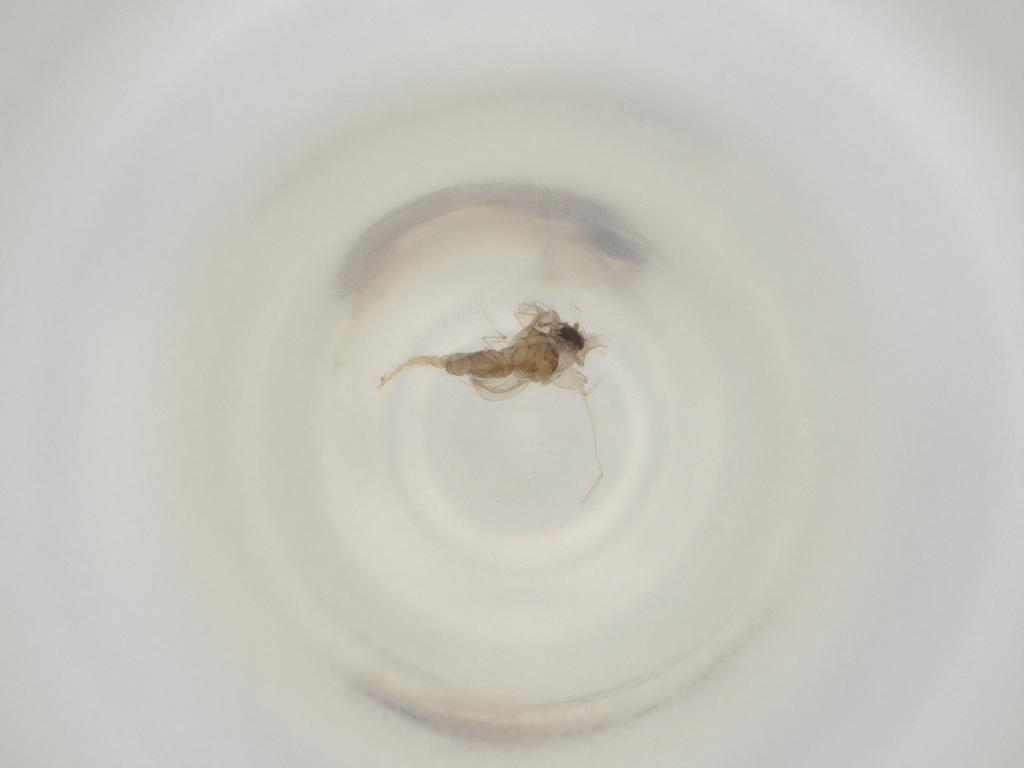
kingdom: Animalia
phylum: Arthropoda
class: Insecta
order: Diptera
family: Cecidomyiidae
